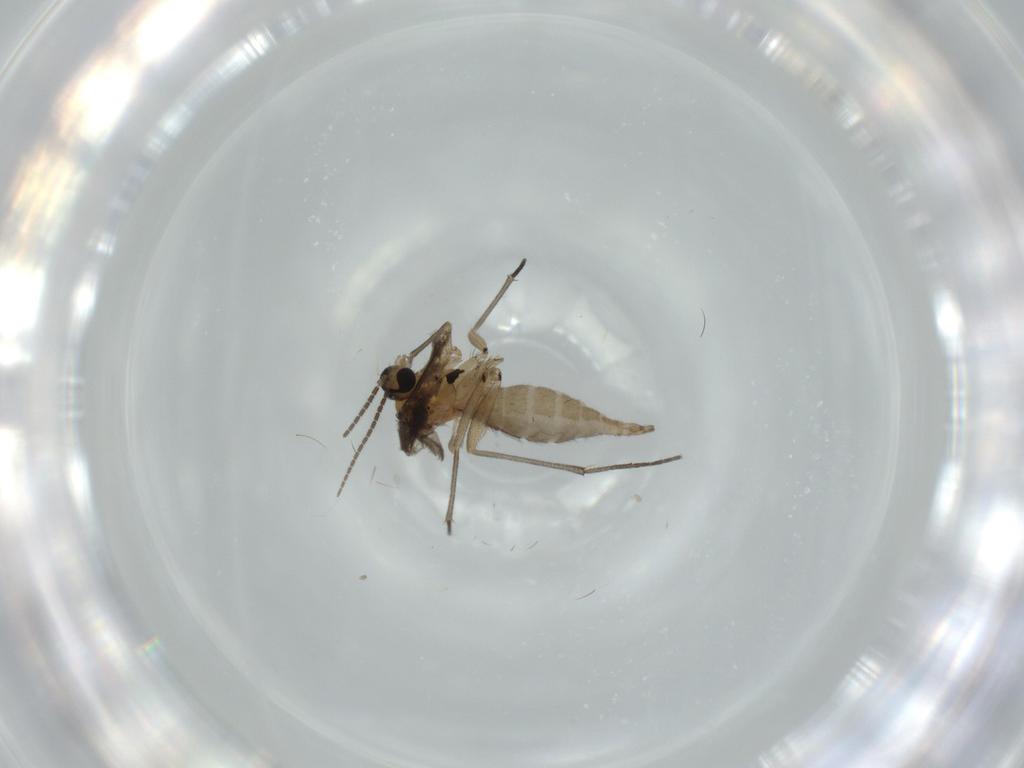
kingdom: Animalia
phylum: Arthropoda
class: Insecta
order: Diptera
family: Sciaridae
